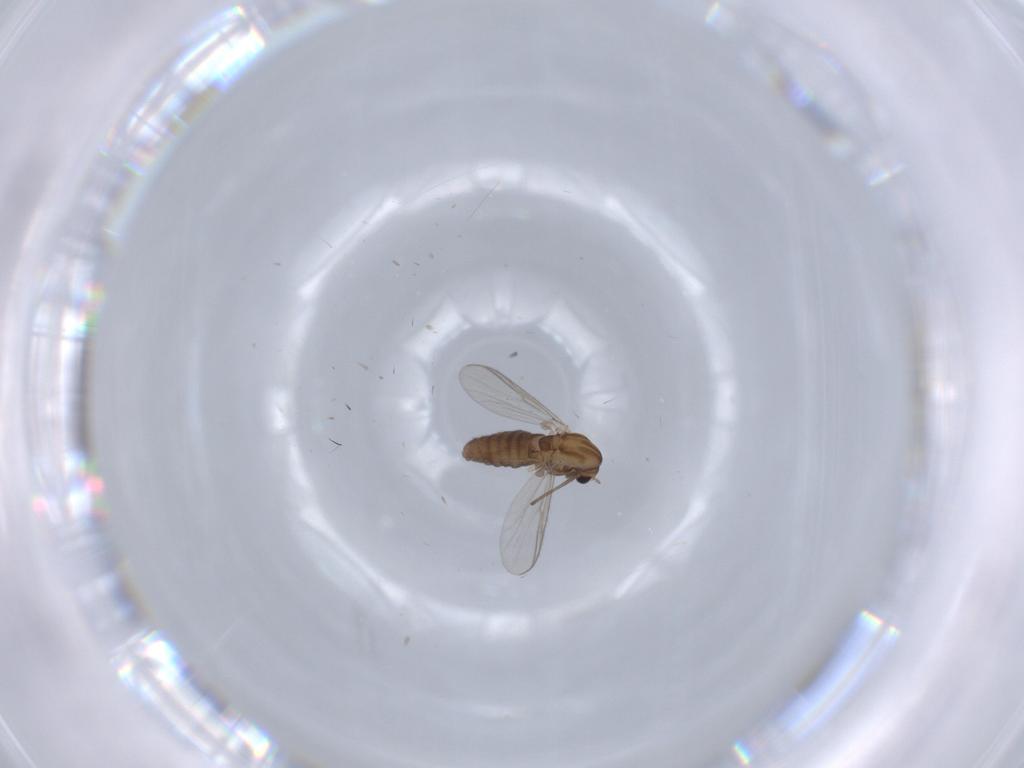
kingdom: Animalia
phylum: Arthropoda
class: Insecta
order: Diptera
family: Chironomidae
